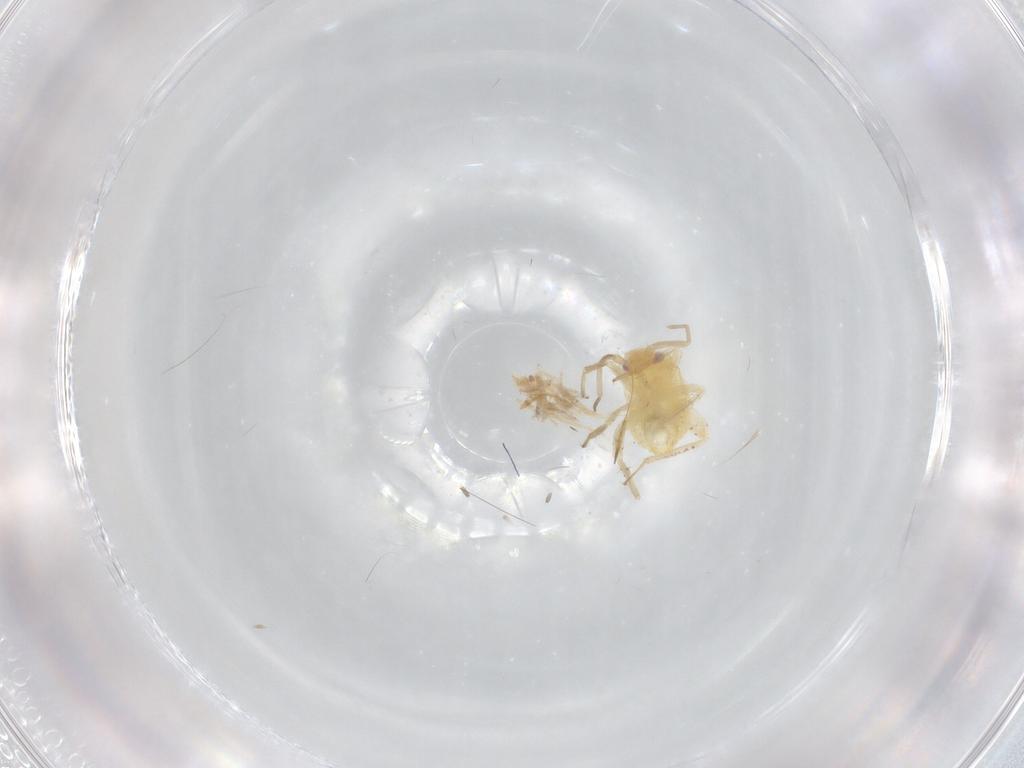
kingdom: Animalia
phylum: Arthropoda
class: Insecta
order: Hemiptera
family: Miridae
